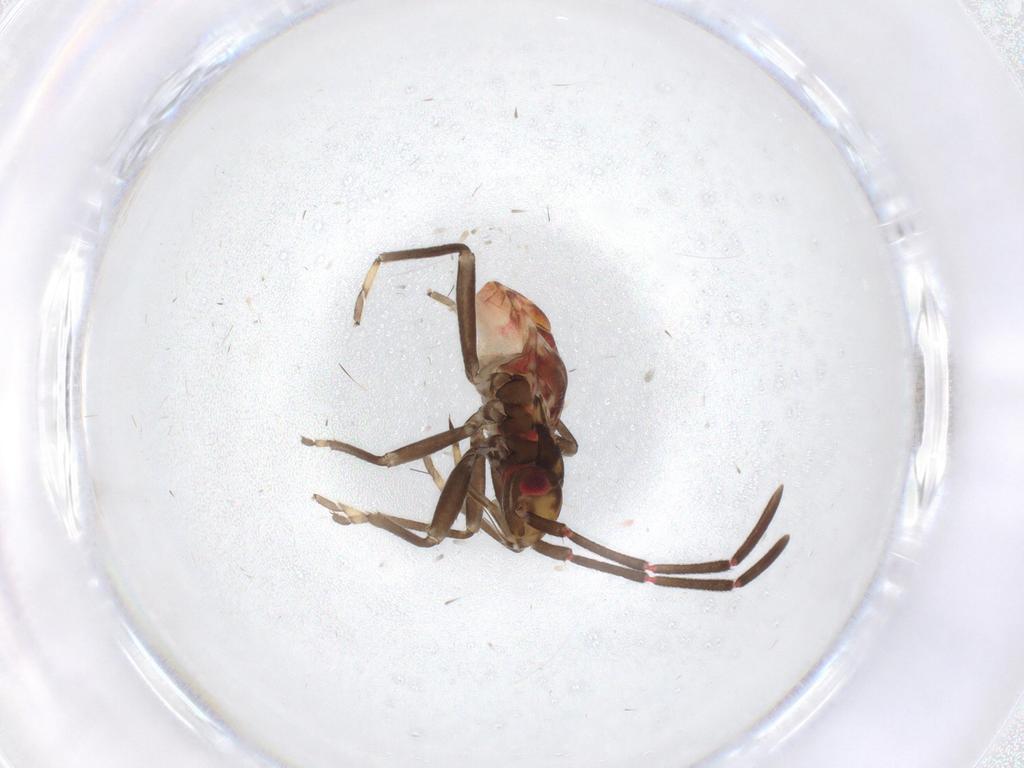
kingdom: Animalia
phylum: Arthropoda
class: Insecta
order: Hemiptera
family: Rhyparochromidae
